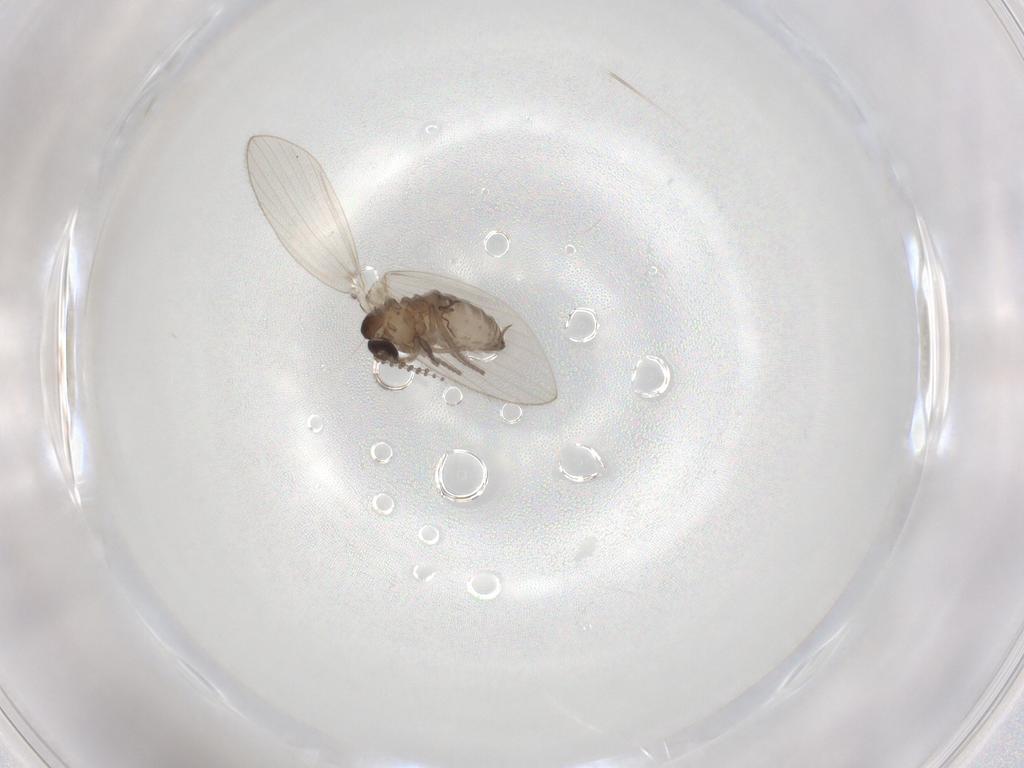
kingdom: Animalia
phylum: Arthropoda
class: Insecta
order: Diptera
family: Psychodidae
